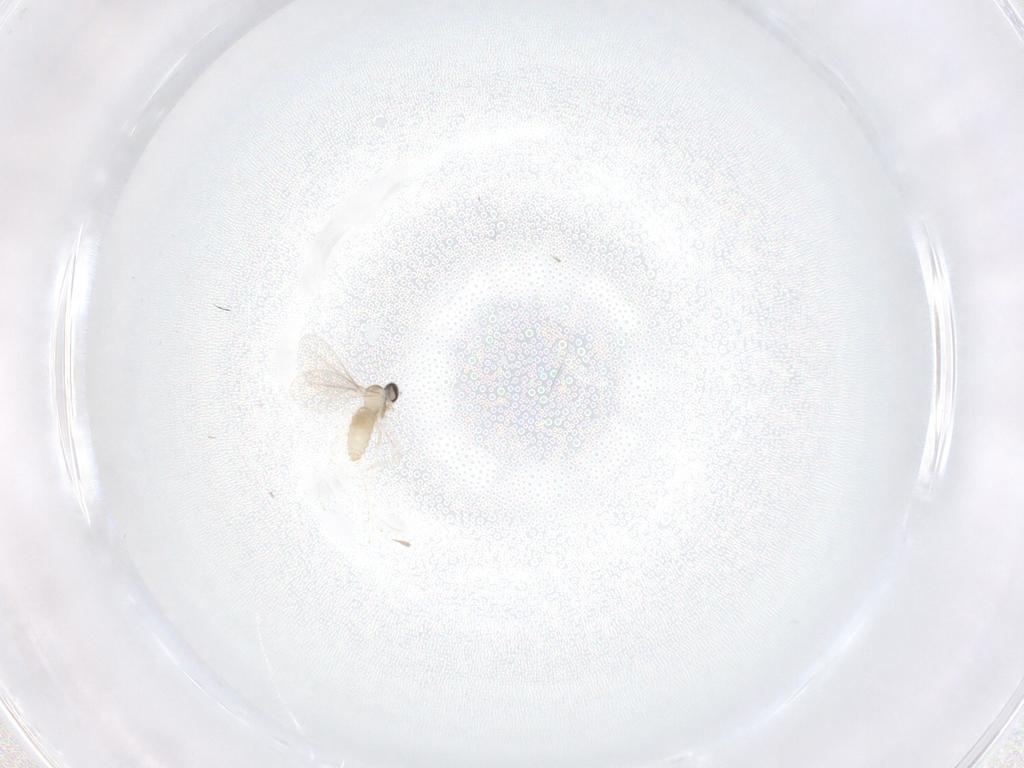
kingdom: Animalia
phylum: Arthropoda
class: Insecta
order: Diptera
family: Cecidomyiidae
